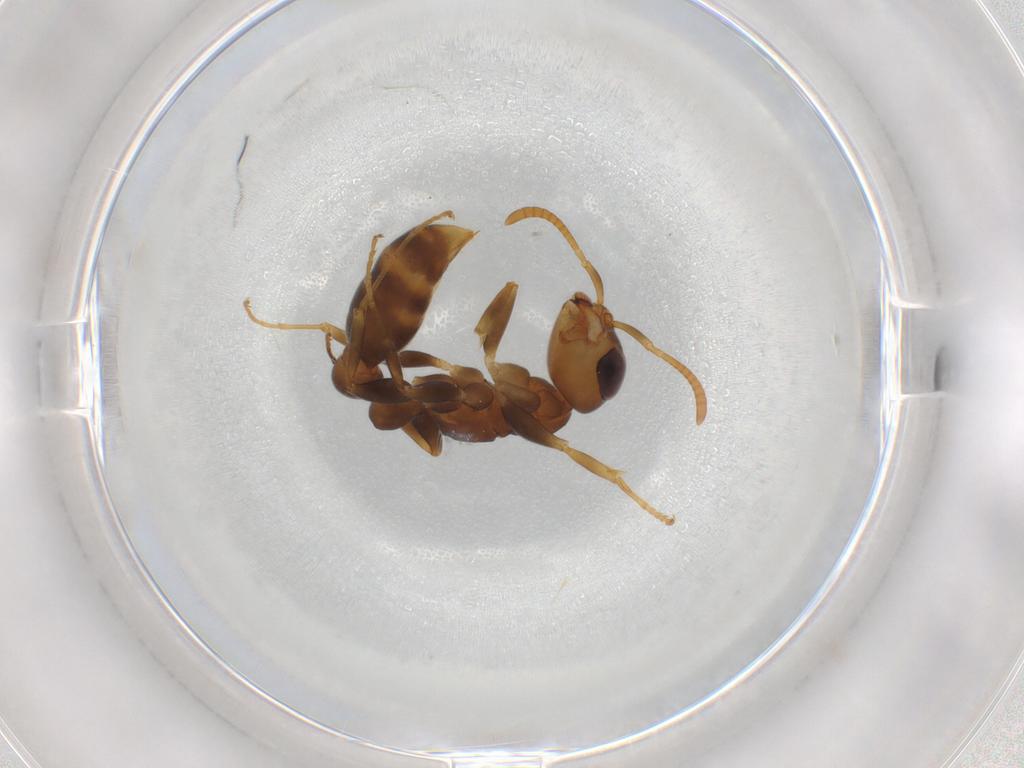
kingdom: Animalia
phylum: Arthropoda
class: Insecta
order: Hymenoptera
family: Formicidae
